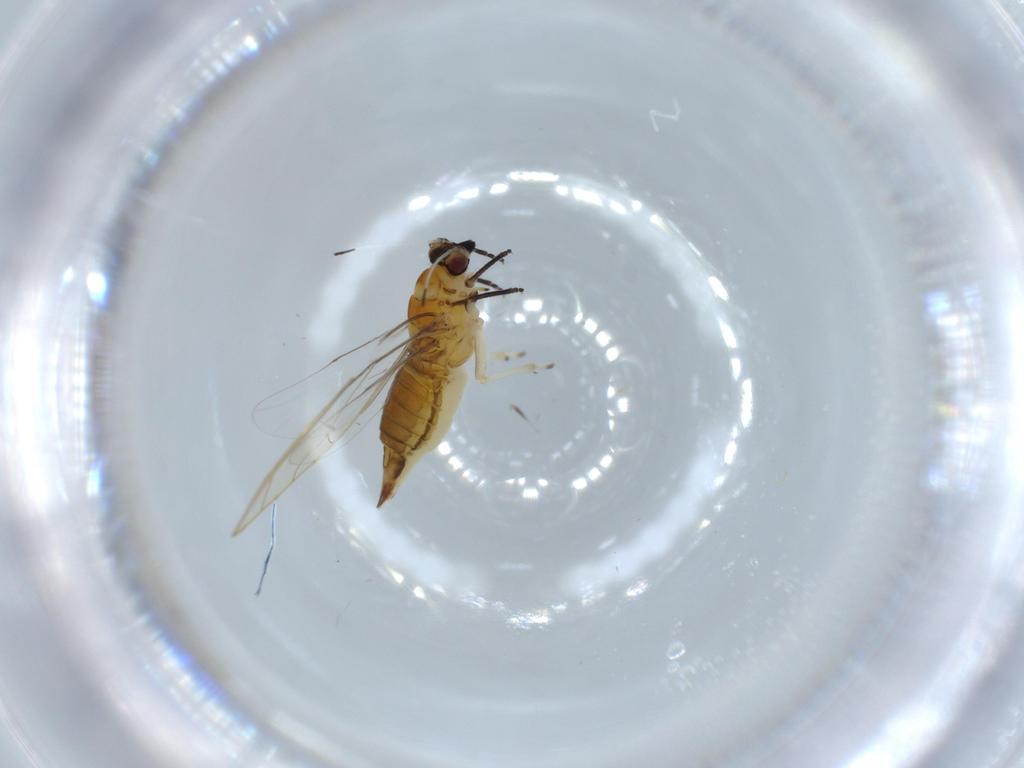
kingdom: Animalia
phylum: Arthropoda
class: Insecta
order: Hemiptera
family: Triozidae
